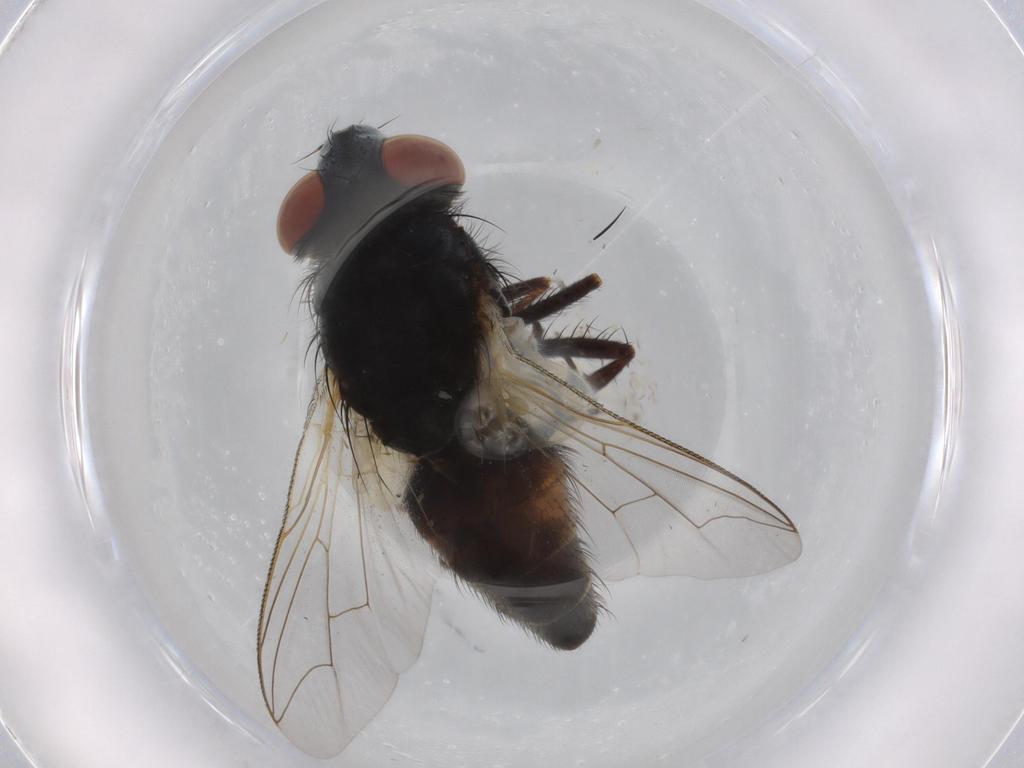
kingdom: Animalia
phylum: Arthropoda
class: Insecta
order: Diptera
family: Sarcophagidae
